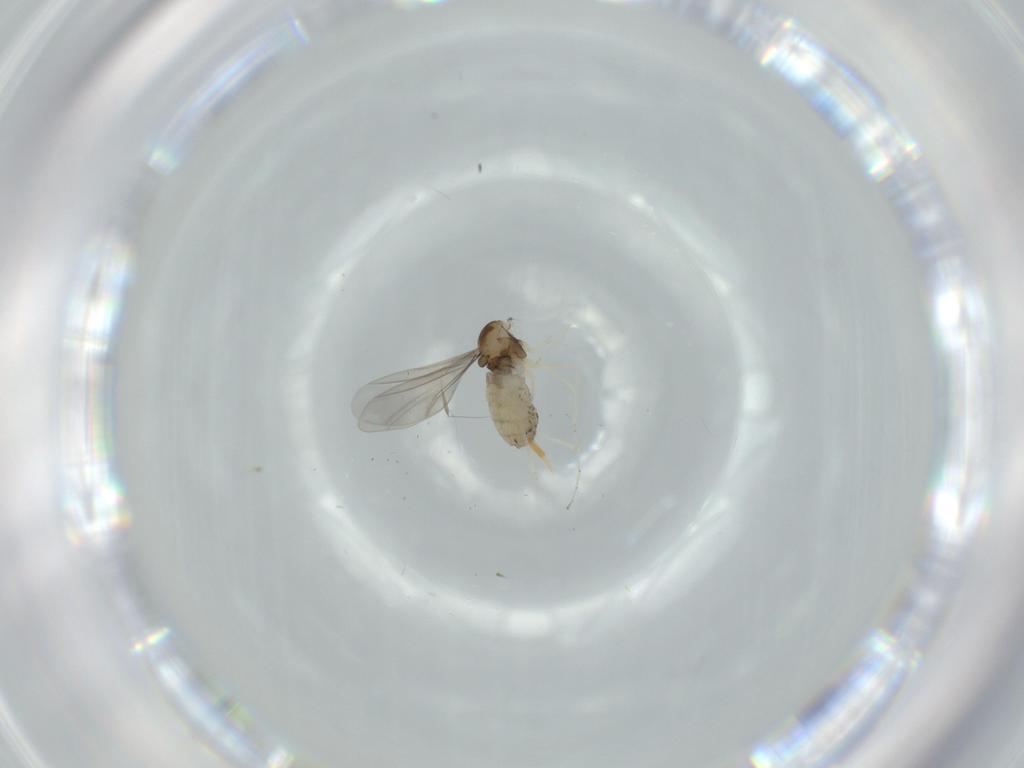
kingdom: Animalia
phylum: Arthropoda
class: Insecta
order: Diptera
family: Cecidomyiidae
